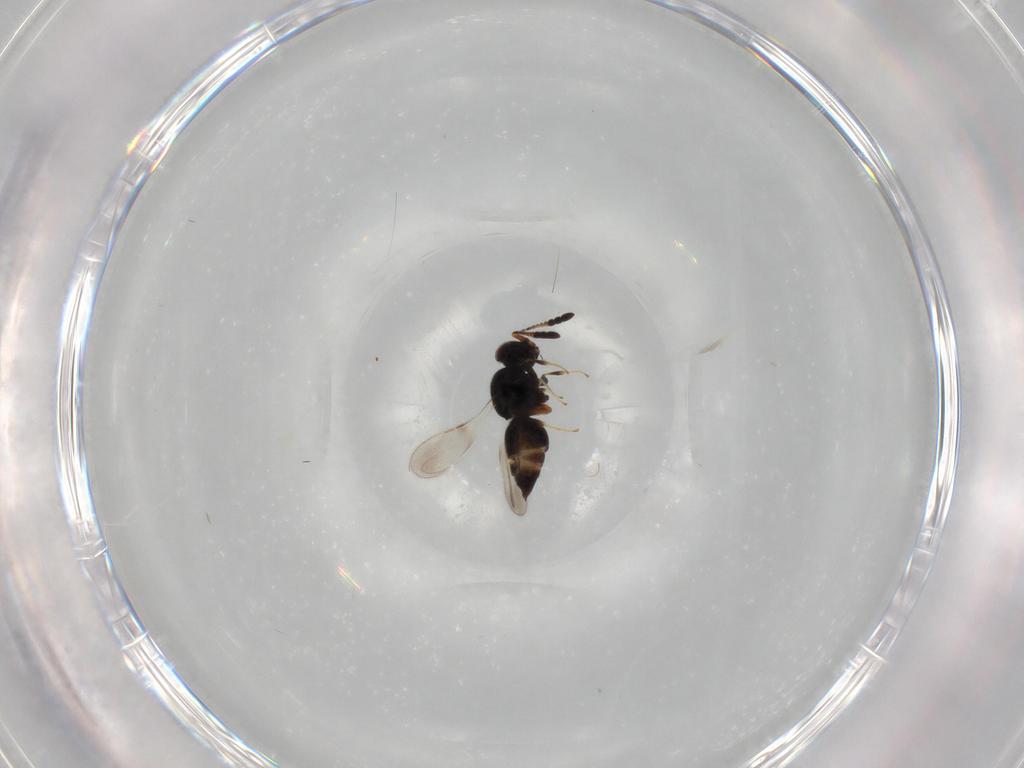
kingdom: Animalia
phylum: Arthropoda
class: Insecta
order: Hymenoptera
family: Ceraphronidae
